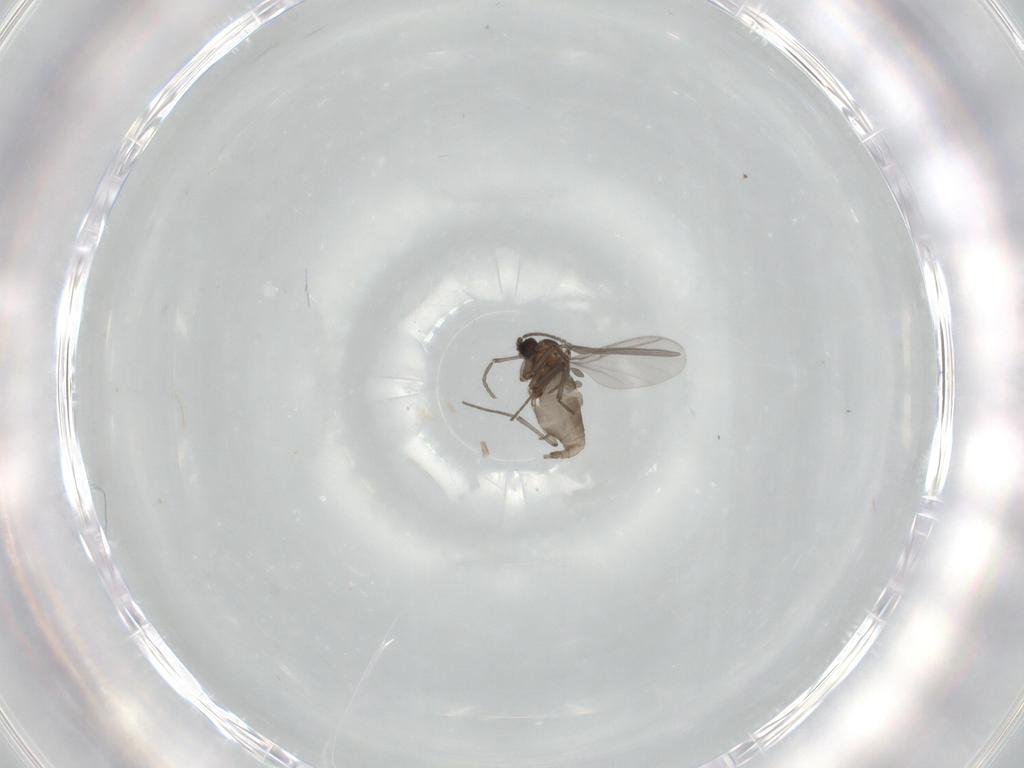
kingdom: Animalia
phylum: Arthropoda
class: Insecta
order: Diptera
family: Sciaridae
